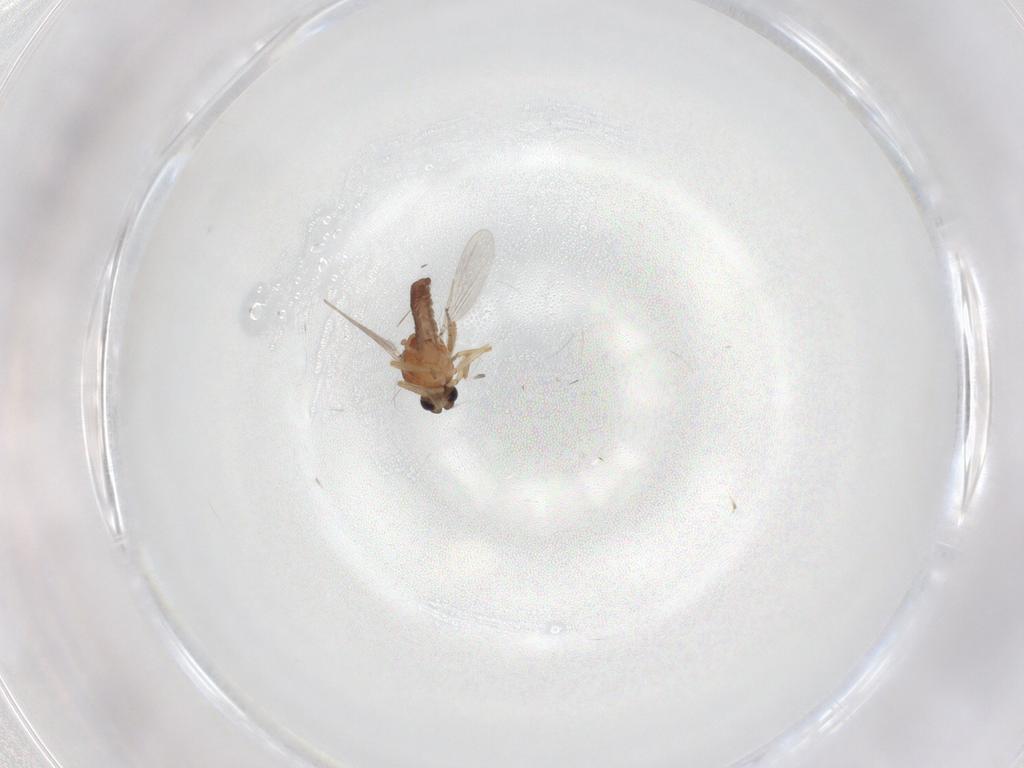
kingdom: Animalia
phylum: Arthropoda
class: Insecta
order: Diptera
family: Ceratopogonidae
